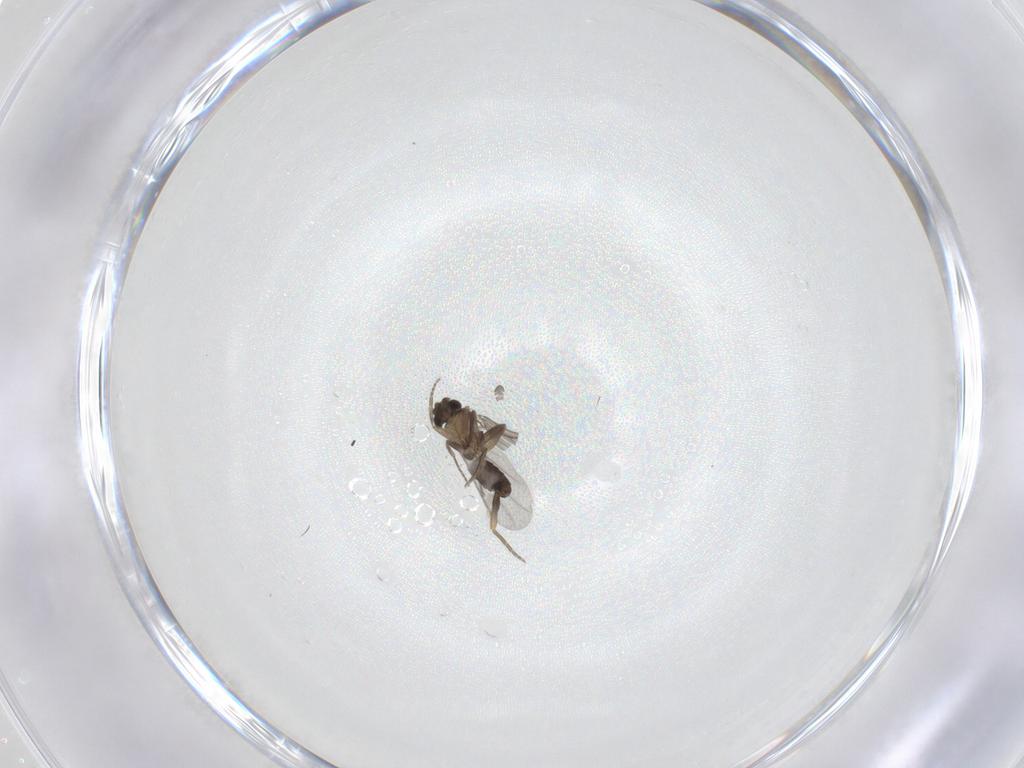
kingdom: Animalia
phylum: Arthropoda
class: Insecta
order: Diptera
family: Phoridae
